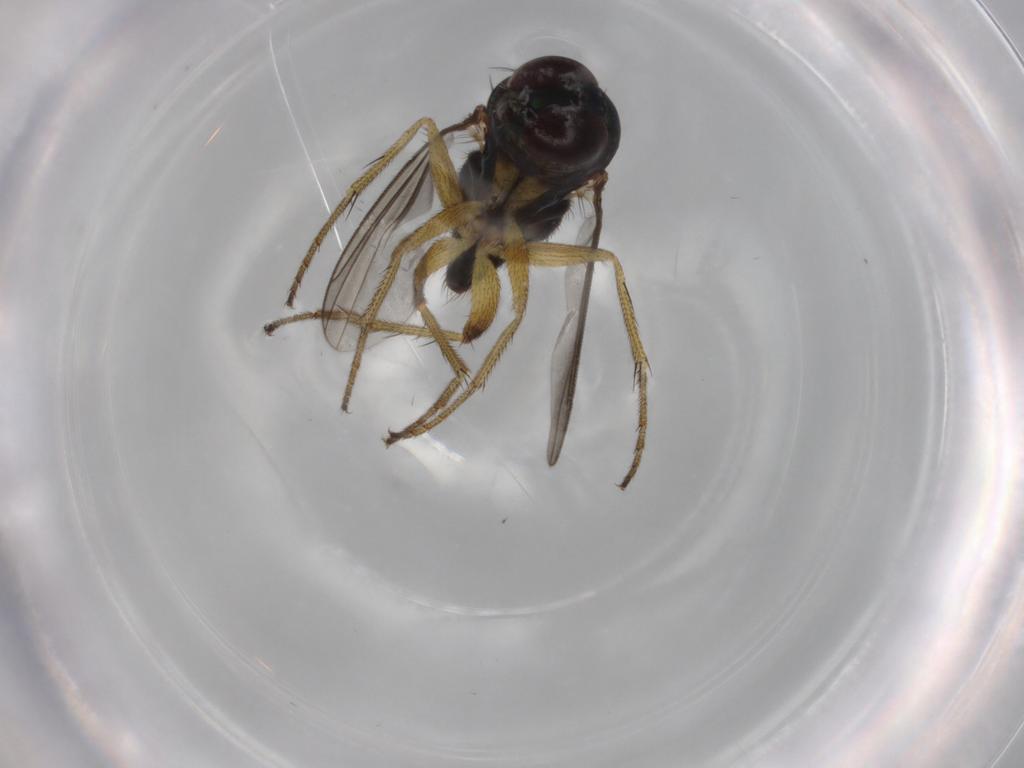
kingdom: Animalia
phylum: Arthropoda
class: Insecta
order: Diptera
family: Dolichopodidae
